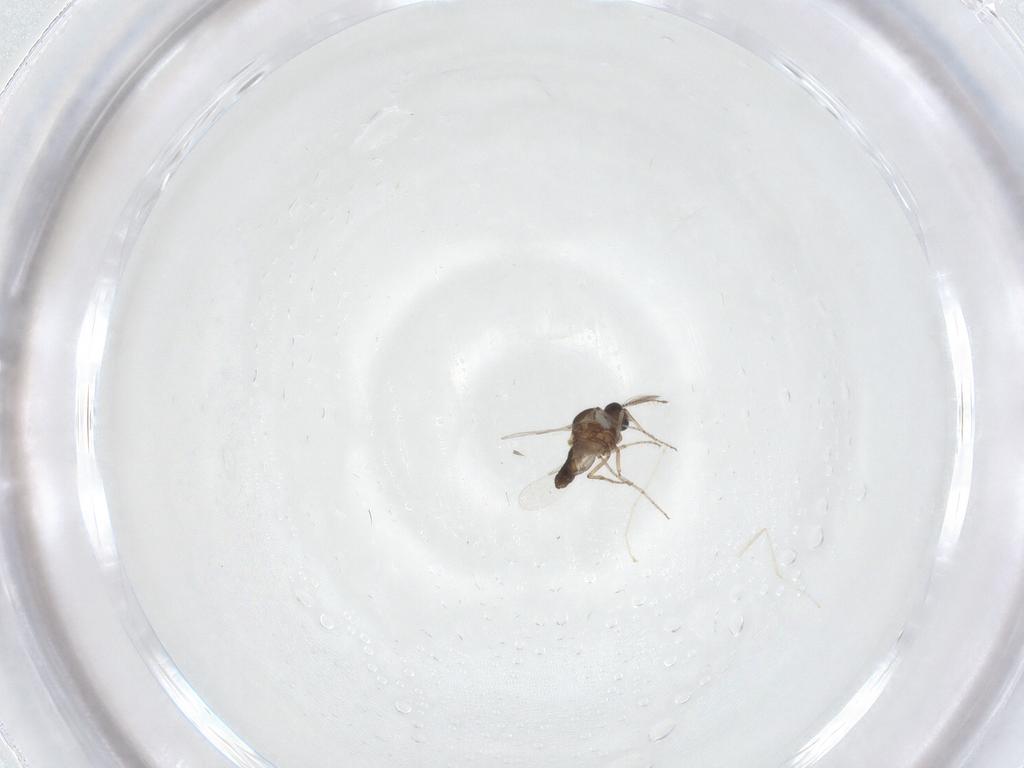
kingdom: Animalia
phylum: Arthropoda
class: Insecta
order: Diptera
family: Ceratopogonidae
